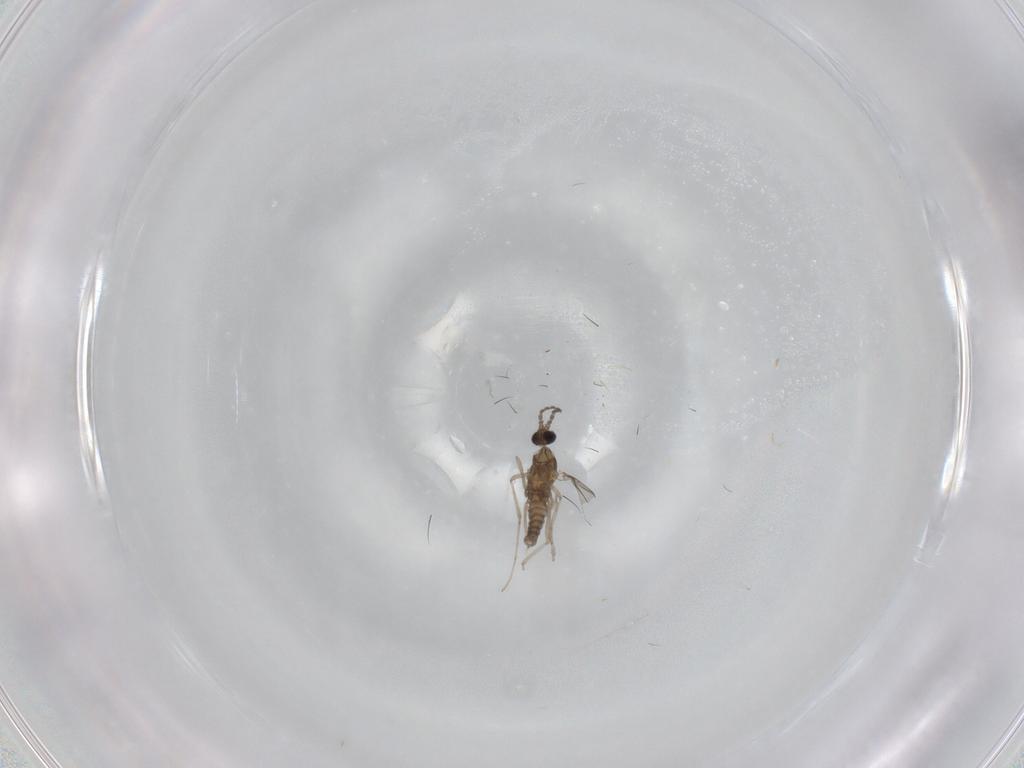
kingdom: Animalia
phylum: Arthropoda
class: Insecta
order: Diptera
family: Cecidomyiidae
